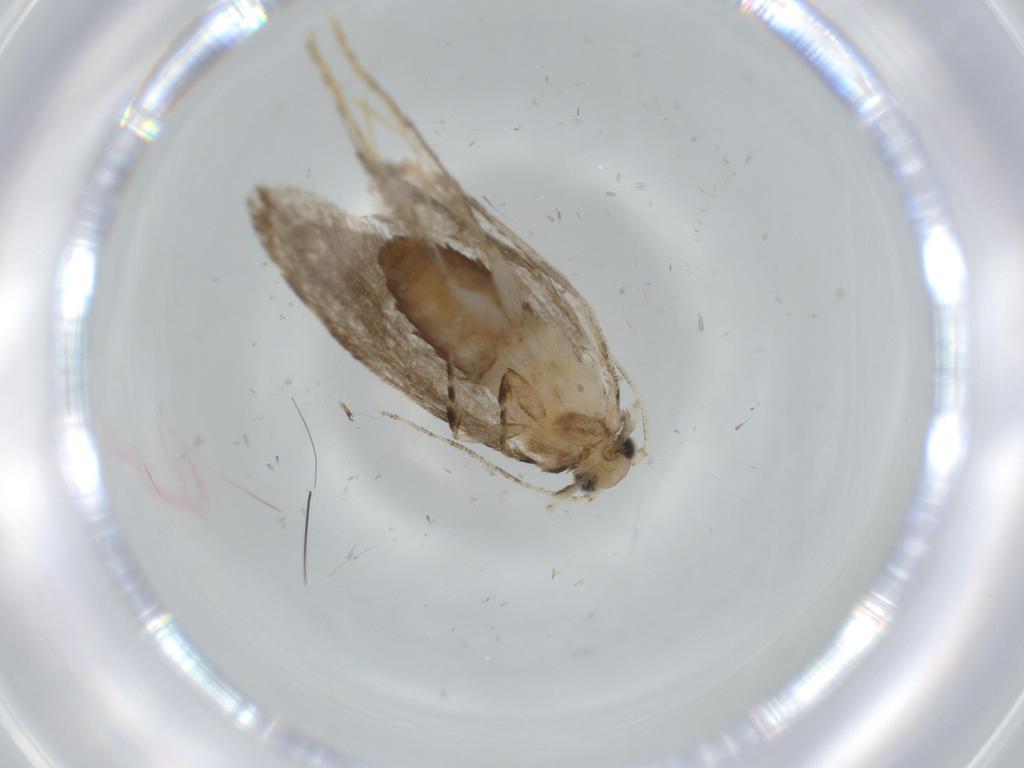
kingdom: Animalia
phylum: Arthropoda
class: Insecta
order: Lepidoptera
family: Tineidae
